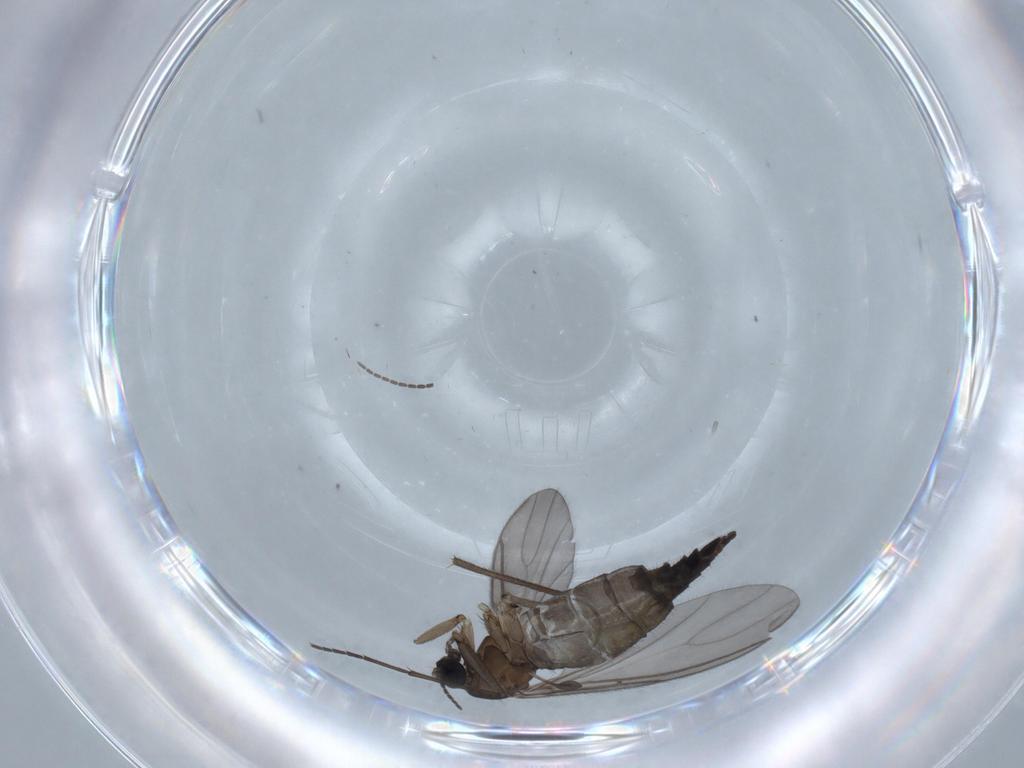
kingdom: Animalia
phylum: Arthropoda
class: Insecta
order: Diptera
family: Sciaridae
